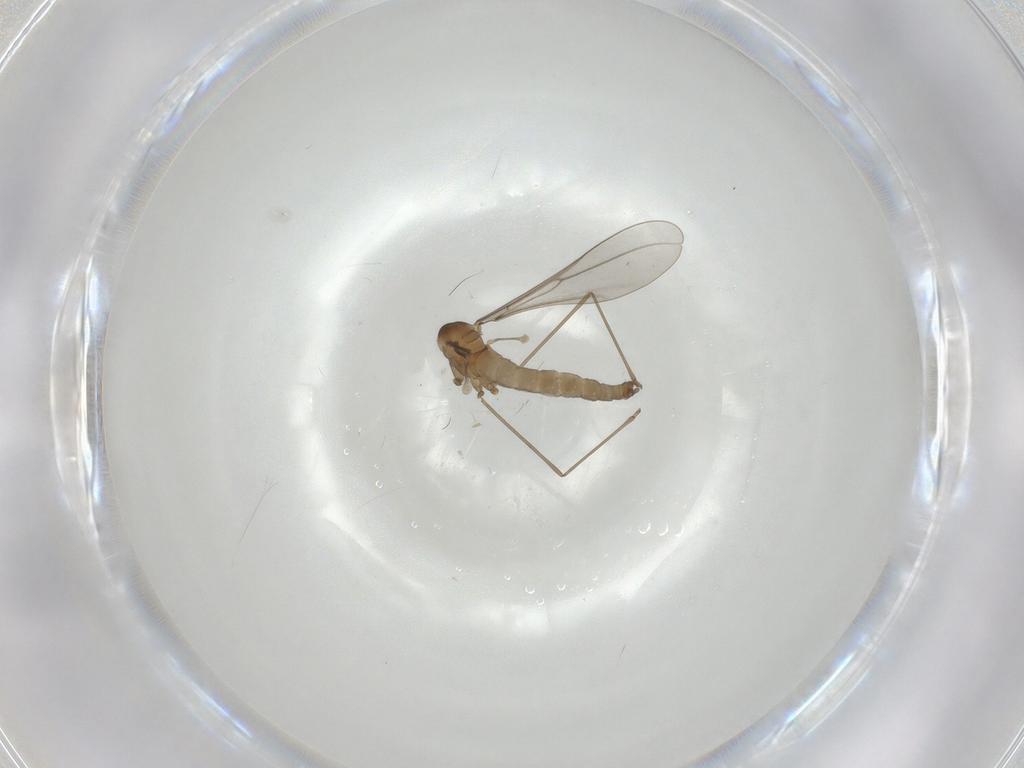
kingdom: Animalia
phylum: Arthropoda
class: Insecta
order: Diptera
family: Cecidomyiidae
